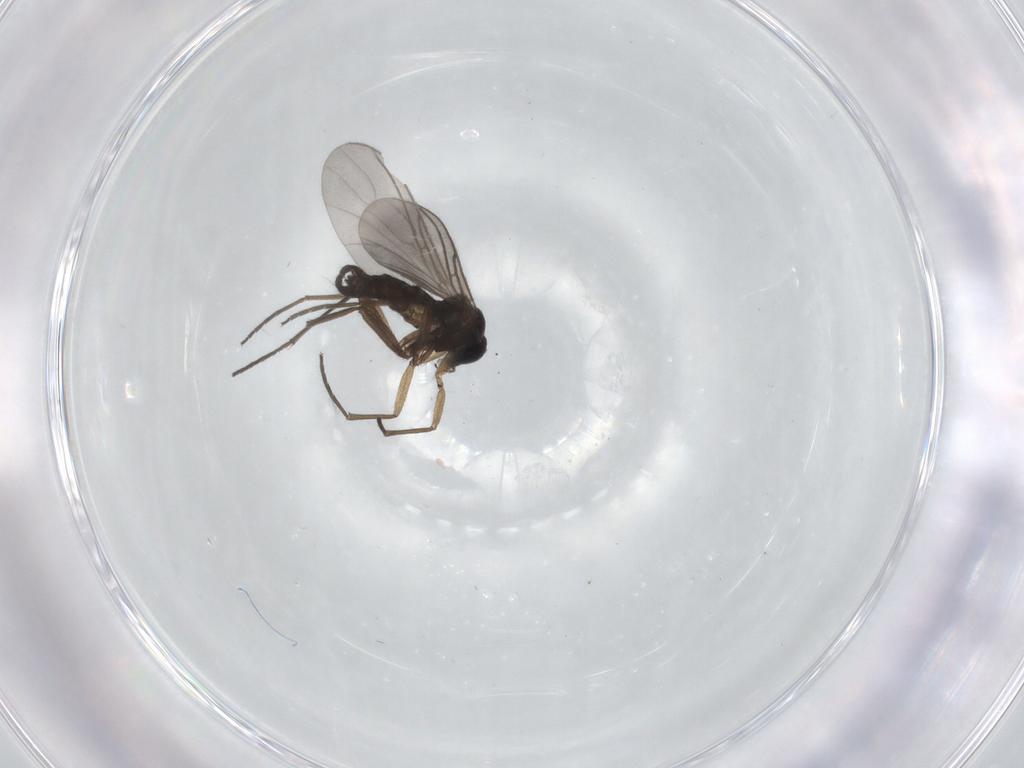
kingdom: Animalia
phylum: Arthropoda
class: Insecta
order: Diptera
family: Sciaridae
